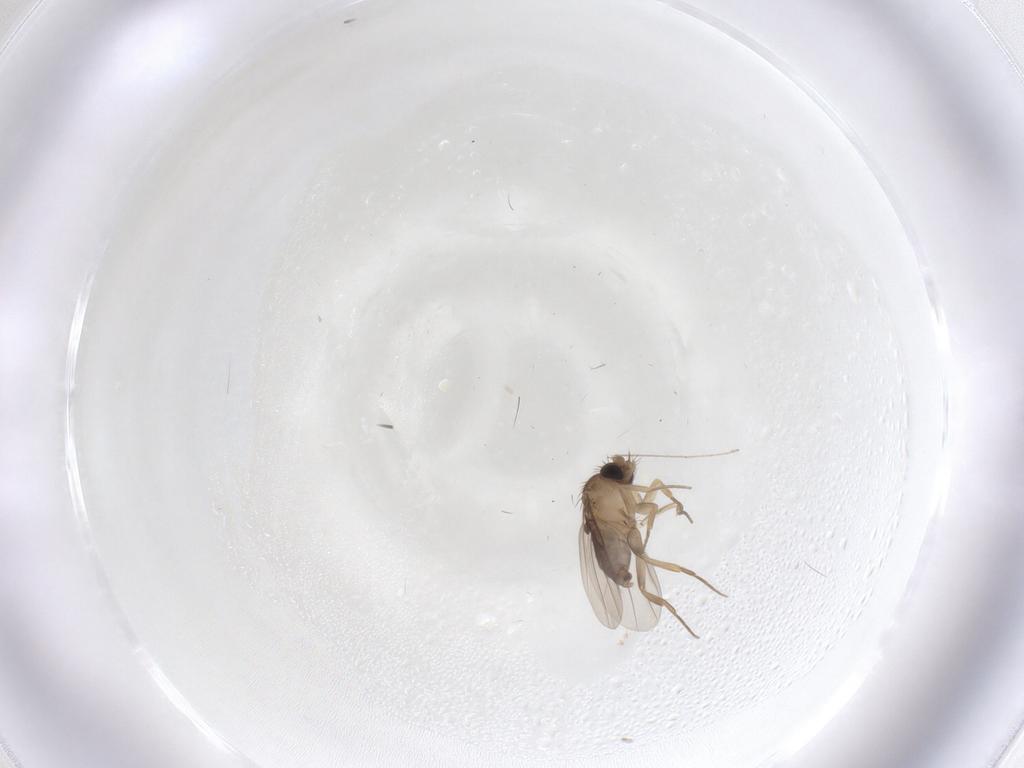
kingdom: Animalia
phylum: Arthropoda
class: Insecta
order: Diptera
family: Phoridae
